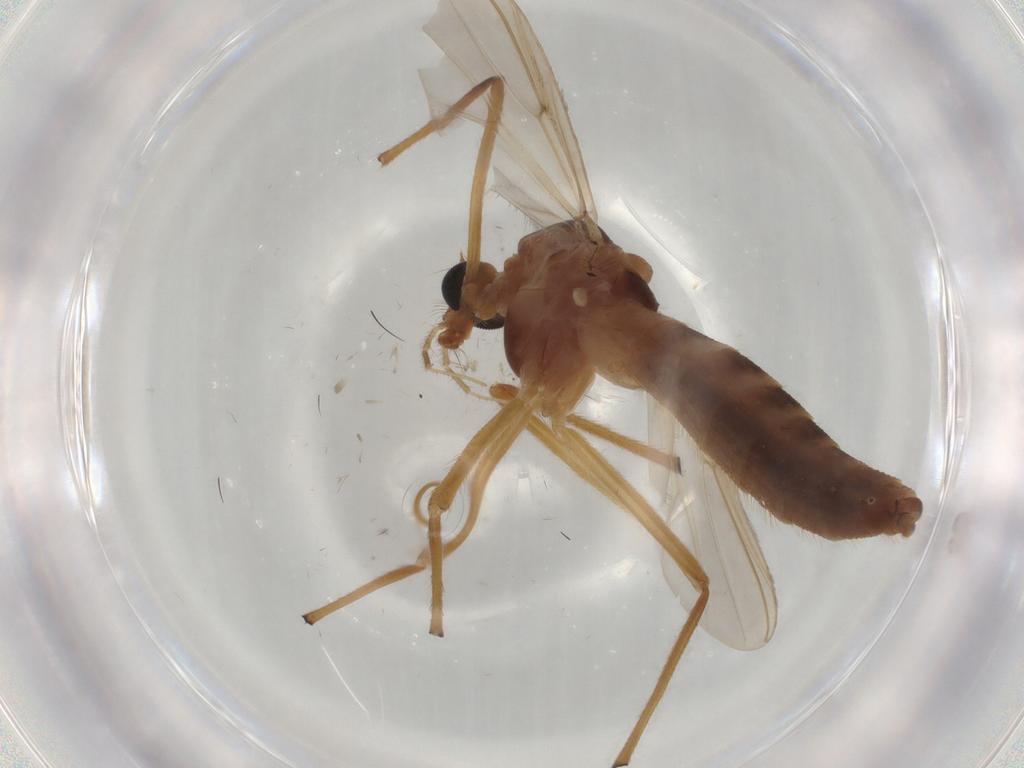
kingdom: Animalia
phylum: Arthropoda
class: Insecta
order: Diptera
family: Chironomidae
